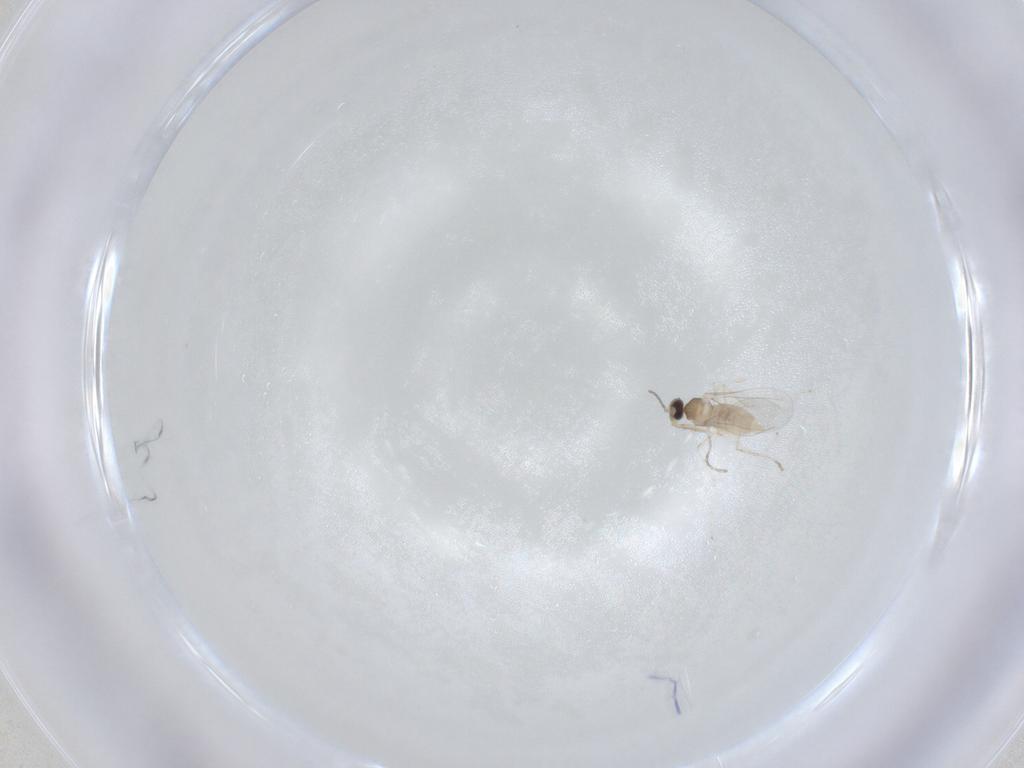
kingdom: Animalia
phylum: Arthropoda
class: Insecta
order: Diptera
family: Cecidomyiidae
